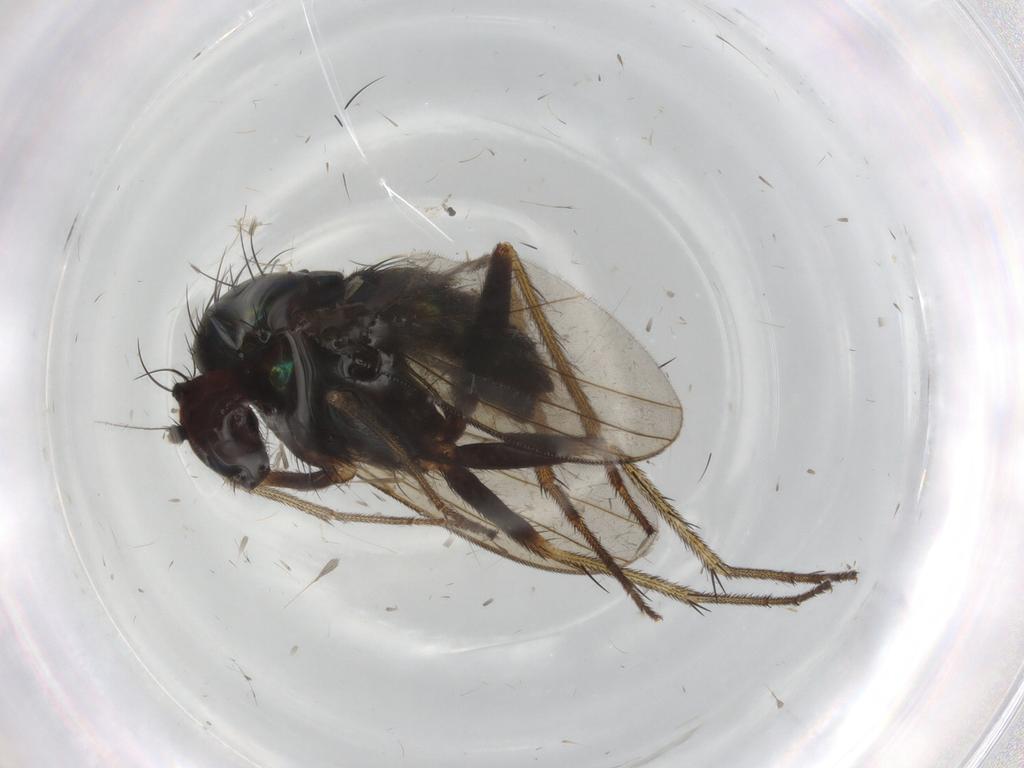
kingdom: Animalia
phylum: Arthropoda
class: Insecta
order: Diptera
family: Dolichopodidae
